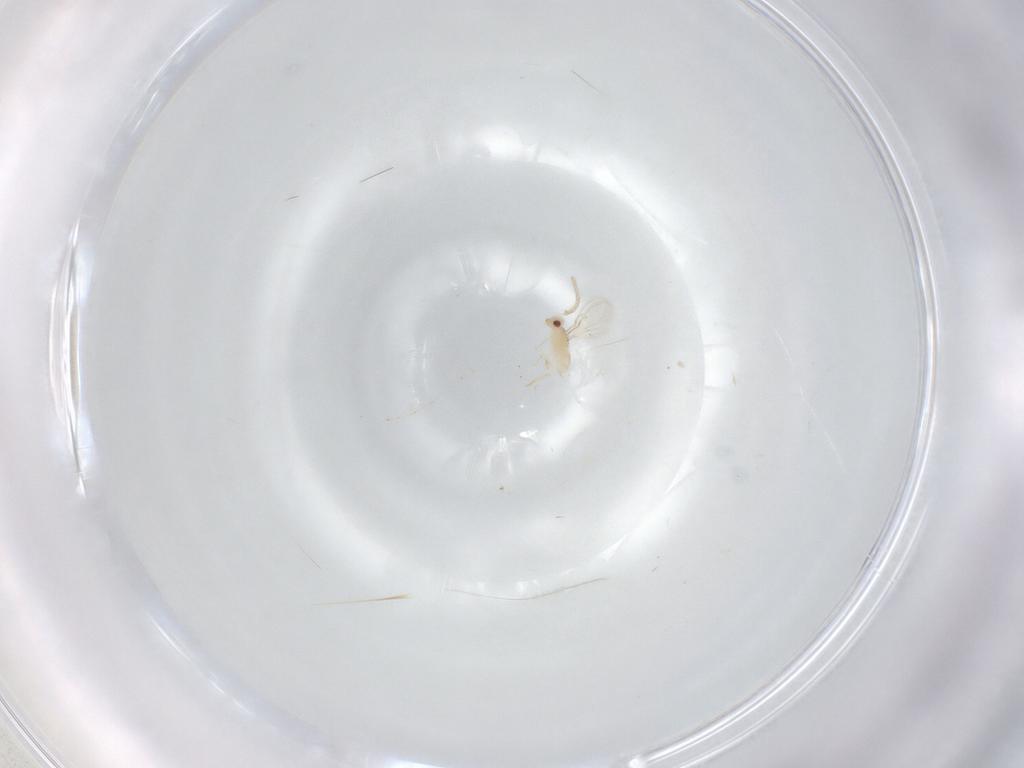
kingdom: Animalia
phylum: Arthropoda
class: Insecta
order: Hymenoptera
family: Aphelinidae
